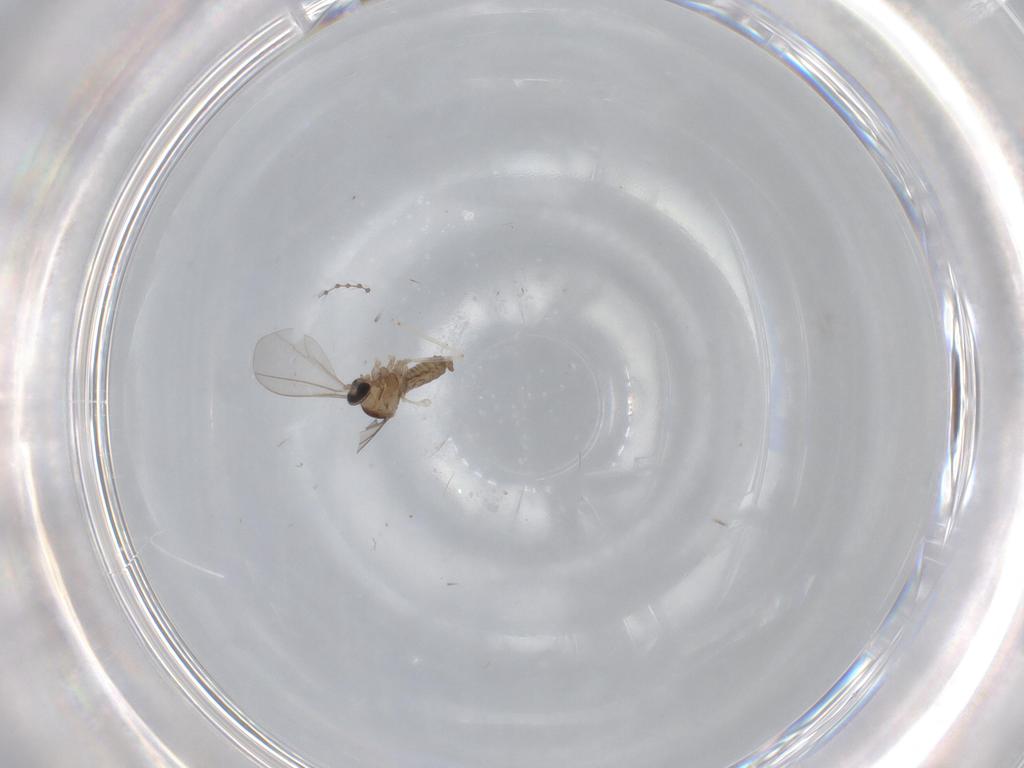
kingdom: Animalia
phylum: Arthropoda
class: Insecta
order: Diptera
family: Cecidomyiidae
